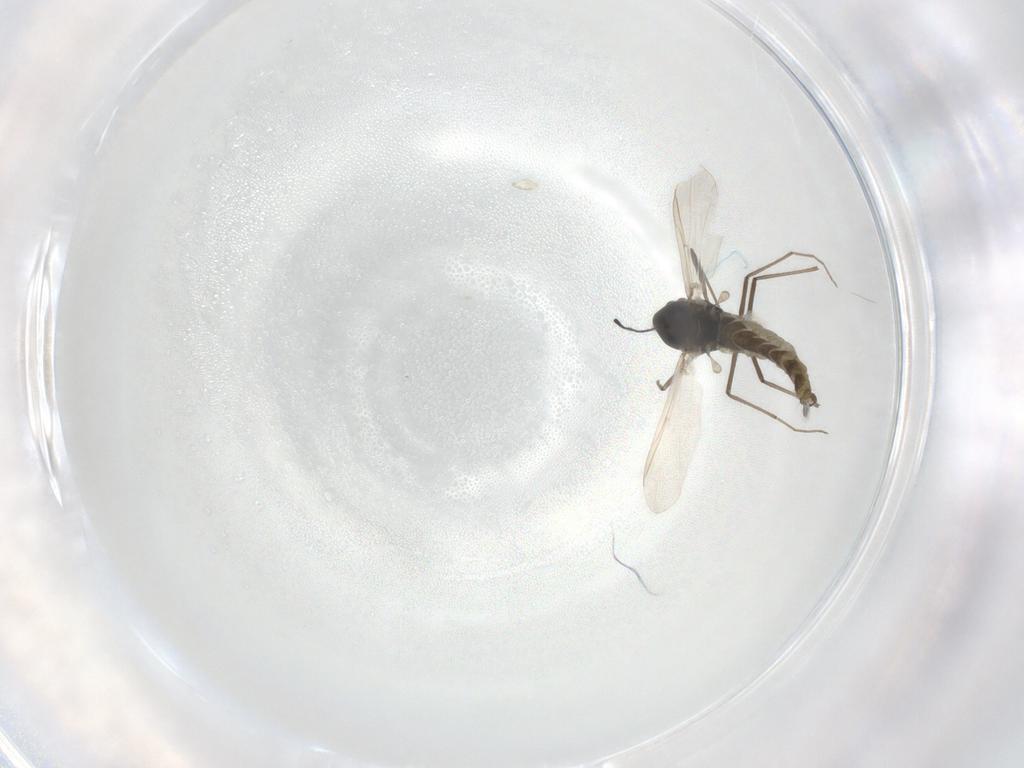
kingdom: Animalia
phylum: Arthropoda
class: Insecta
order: Diptera
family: Chironomidae
